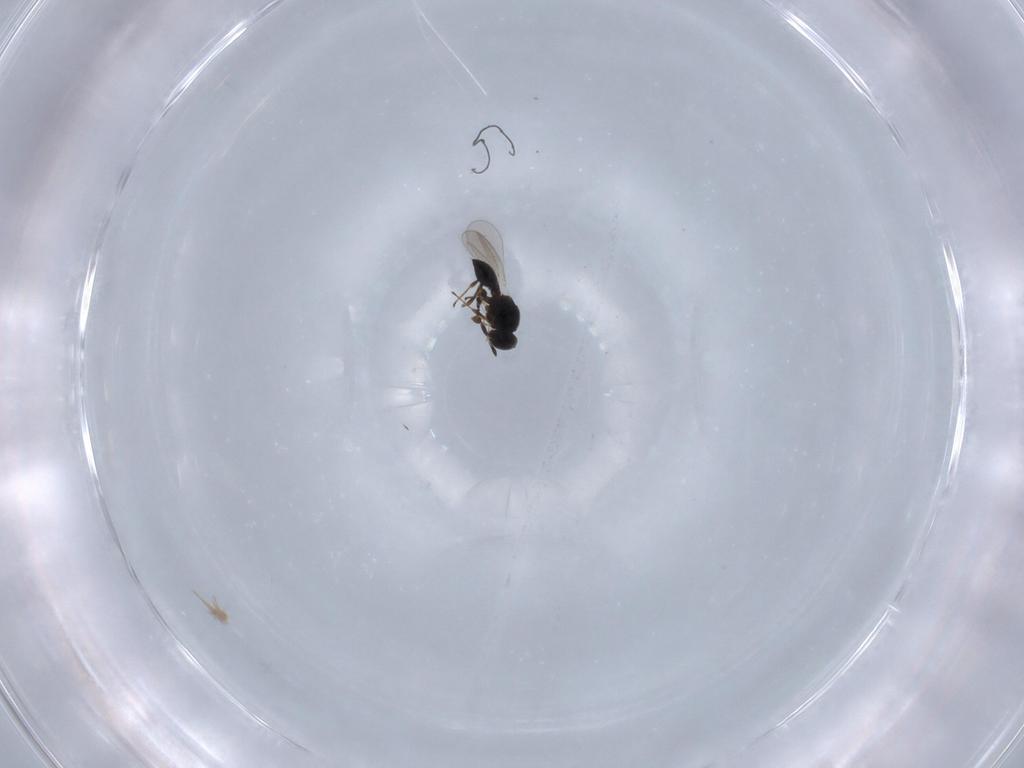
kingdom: Animalia
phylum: Arthropoda
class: Insecta
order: Hymenoptera
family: Platygastridae
